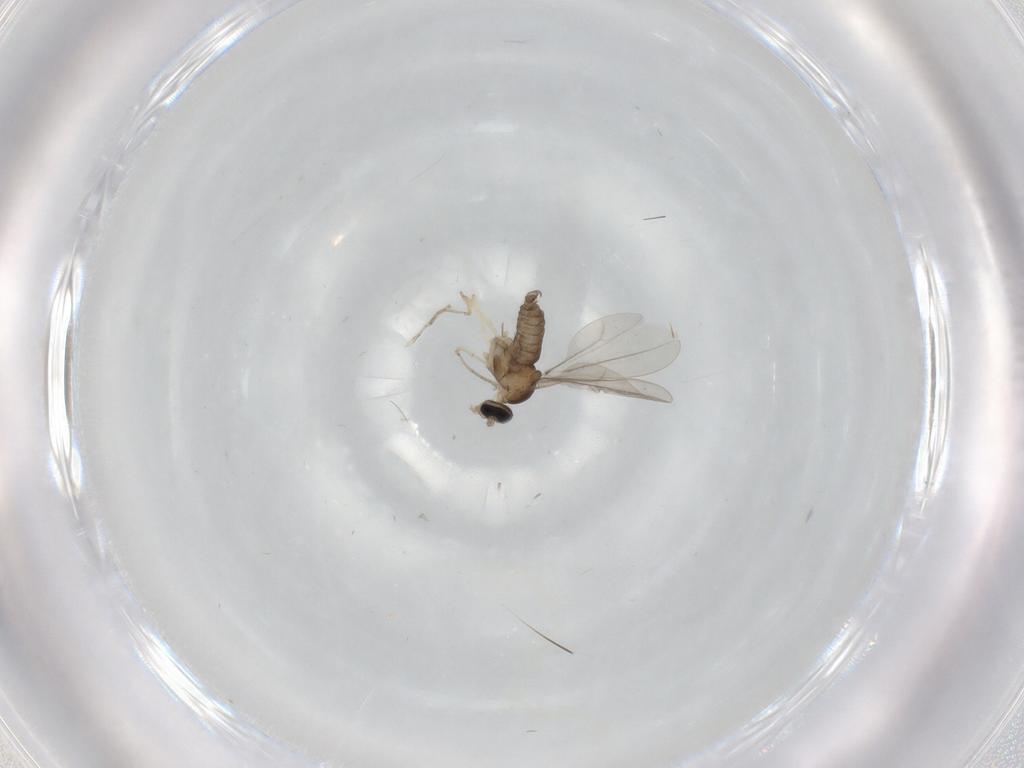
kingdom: Animalia
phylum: Arthropoda
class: Insecta
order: Diptera
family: Cecidomyiidae
